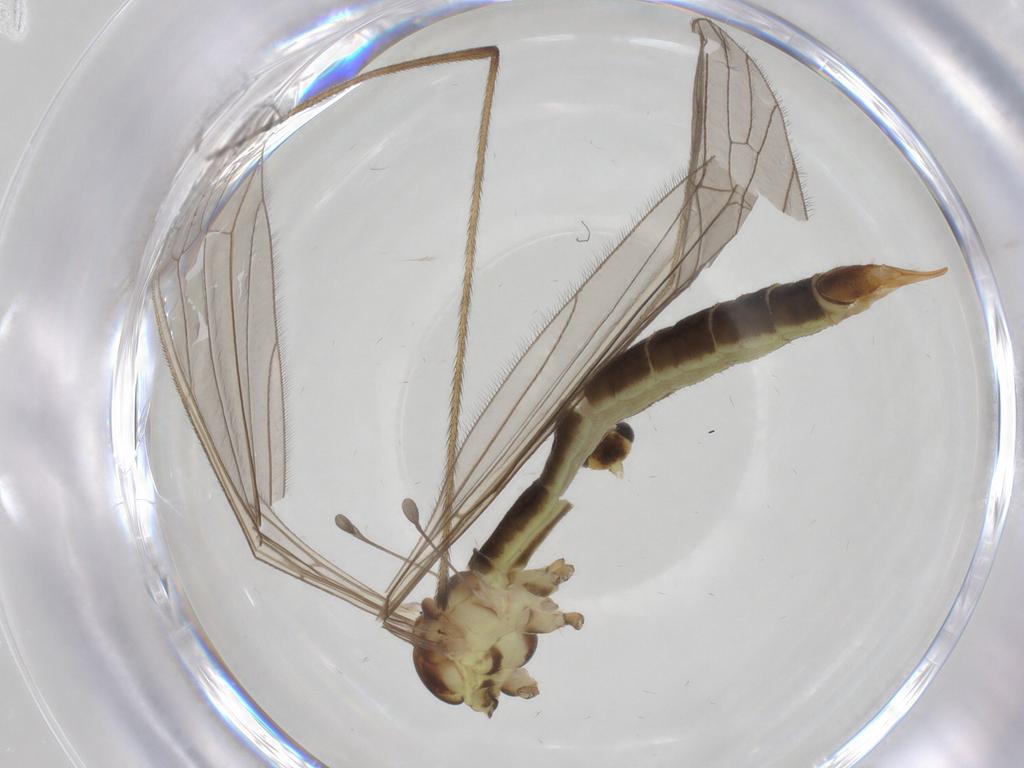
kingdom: Animalia
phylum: Arthropoda
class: Insecta
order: Diptera
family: Limoniidae
